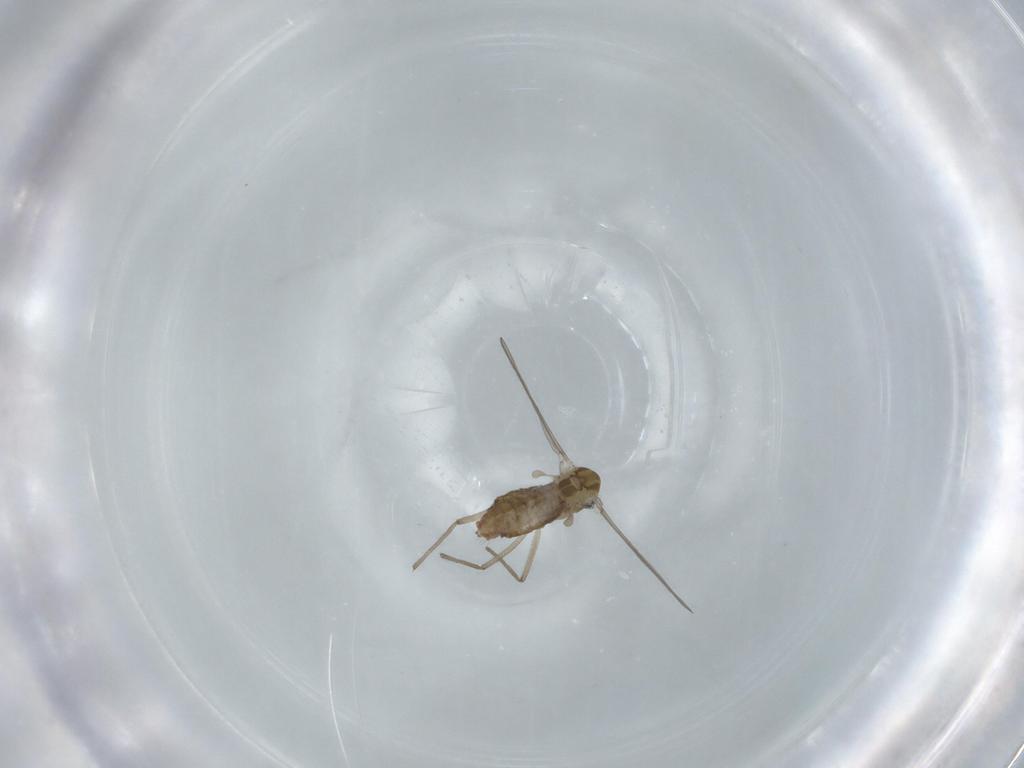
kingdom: Animalia
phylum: Arthropoda
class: Insecta
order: Diptera
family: Chironomidae
